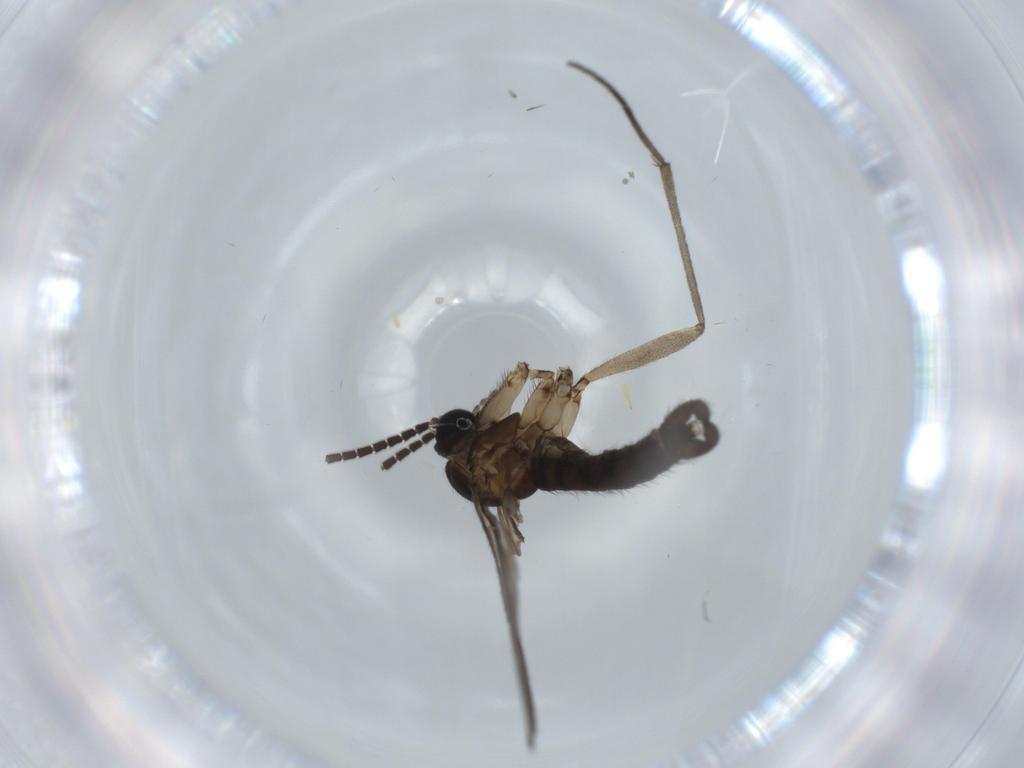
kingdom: Animalia
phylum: Arthropoda
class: Insecta
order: Diptera
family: Sciaridae
